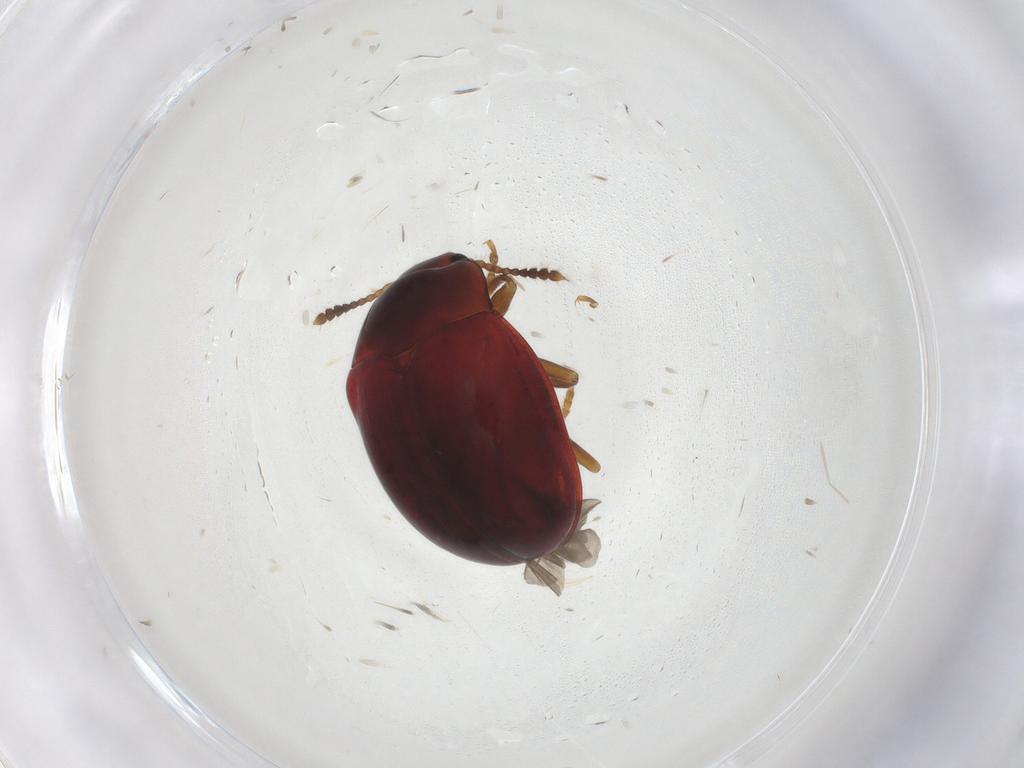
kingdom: Animalia
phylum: Arthropoda
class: Insecta
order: Coleoptera
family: Erotylidae
